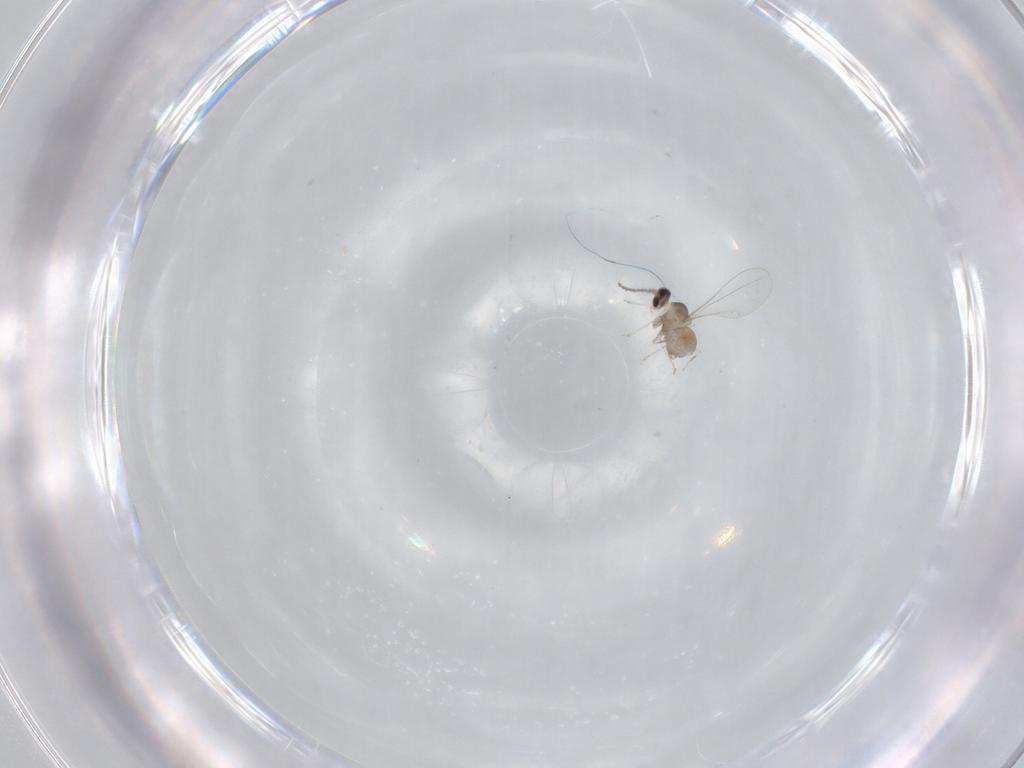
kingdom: Animalia
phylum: Arthropoda
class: Insecta
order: Diptera
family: Cecidomyiidae
